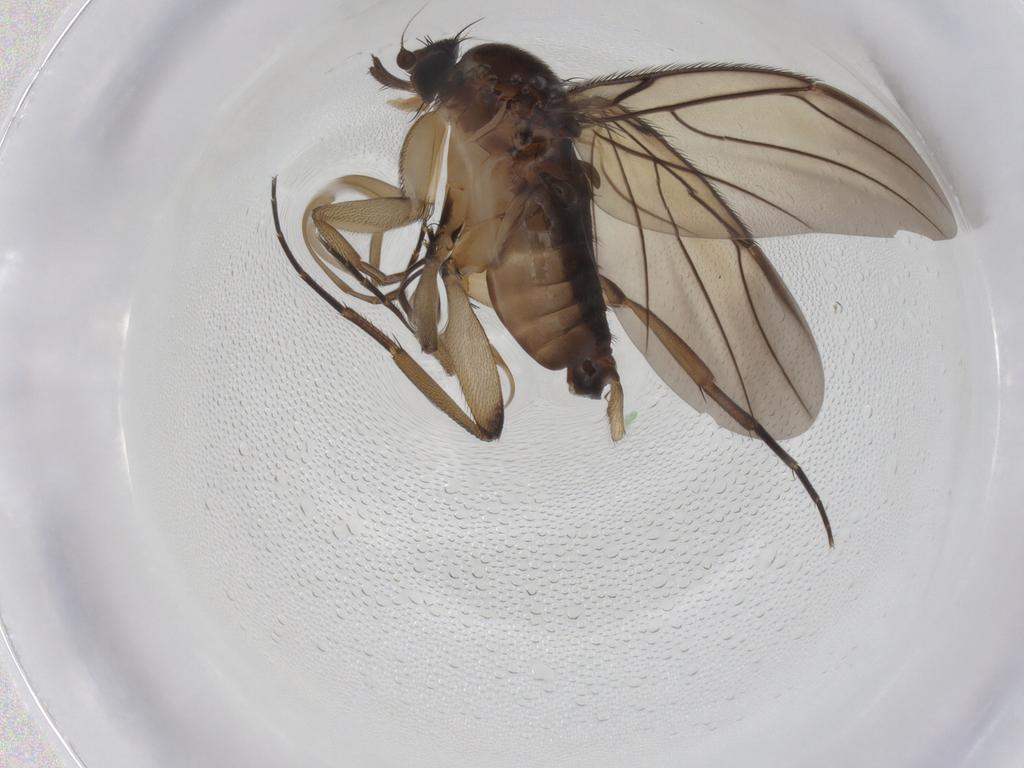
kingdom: Animalia
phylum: Arthropoda
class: Insecta
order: Diptera
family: Phoridae
